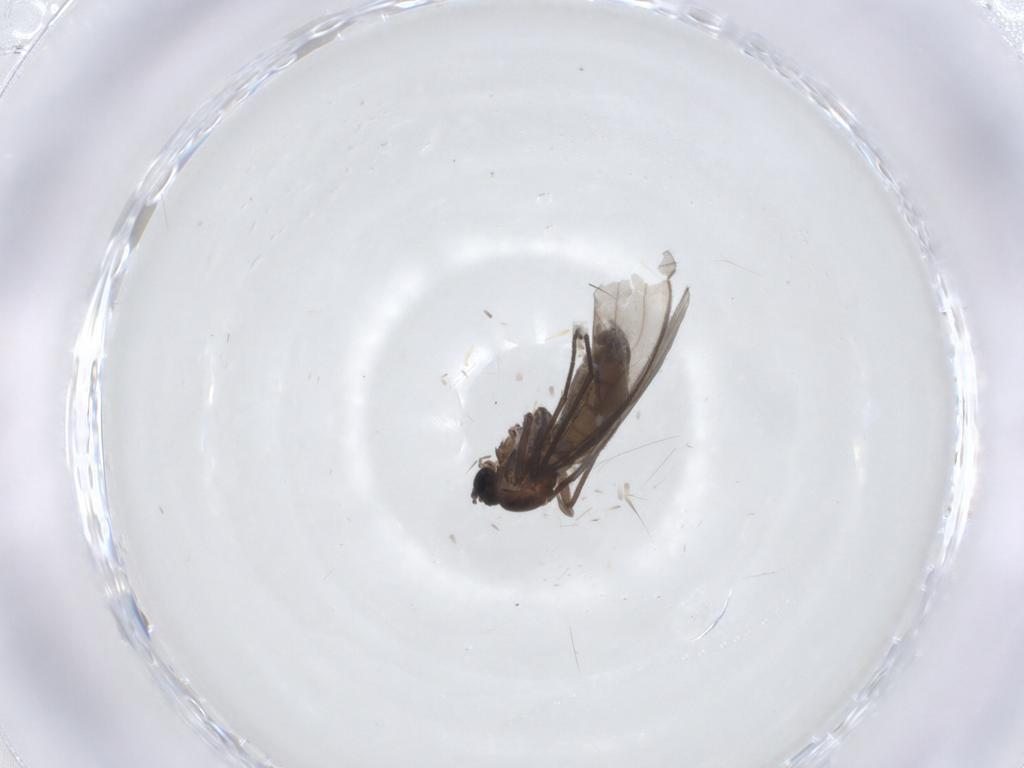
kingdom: Animalia
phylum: Arthropoda
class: Insecta
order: Diptera
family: Sciaridae
